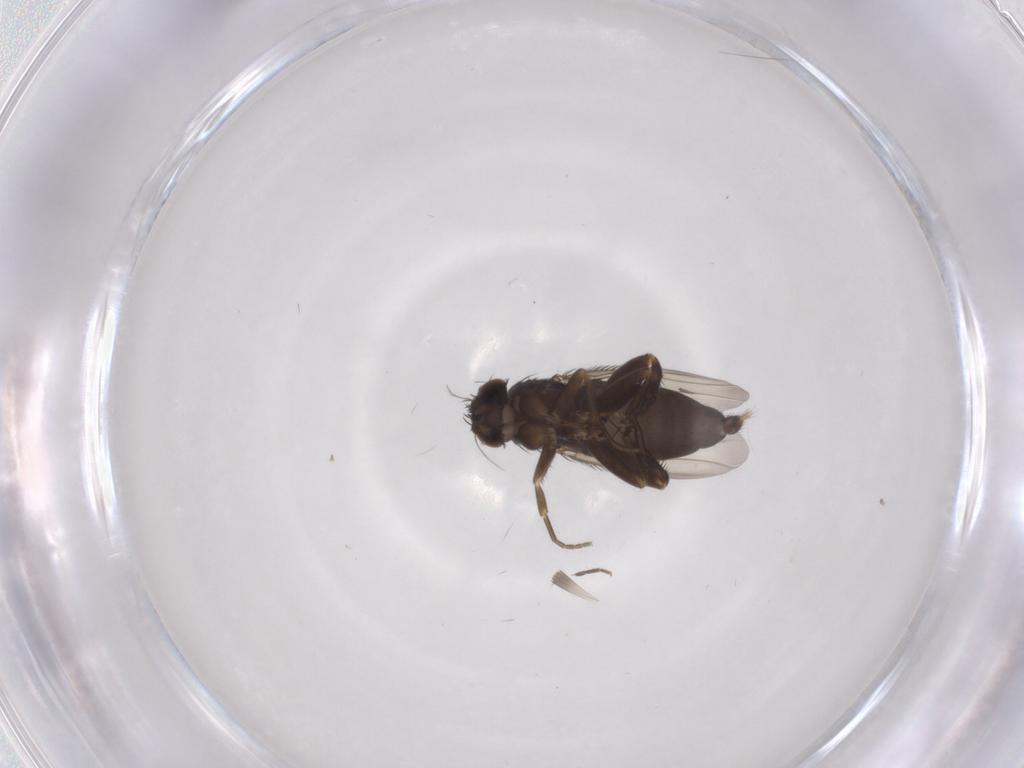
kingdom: Animalia
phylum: Arthropoda
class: Insecta
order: Diptera
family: Phoridae
